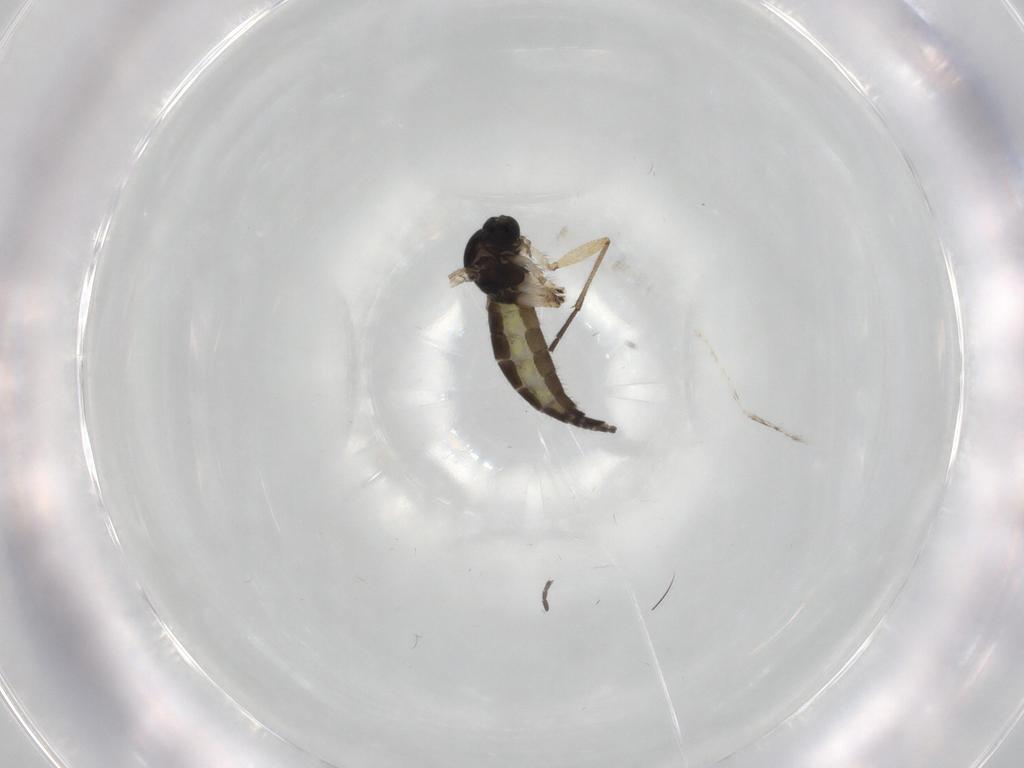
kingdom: Animalia
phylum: Arthropoda
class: Insecta
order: Diptera
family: Sciaridae
